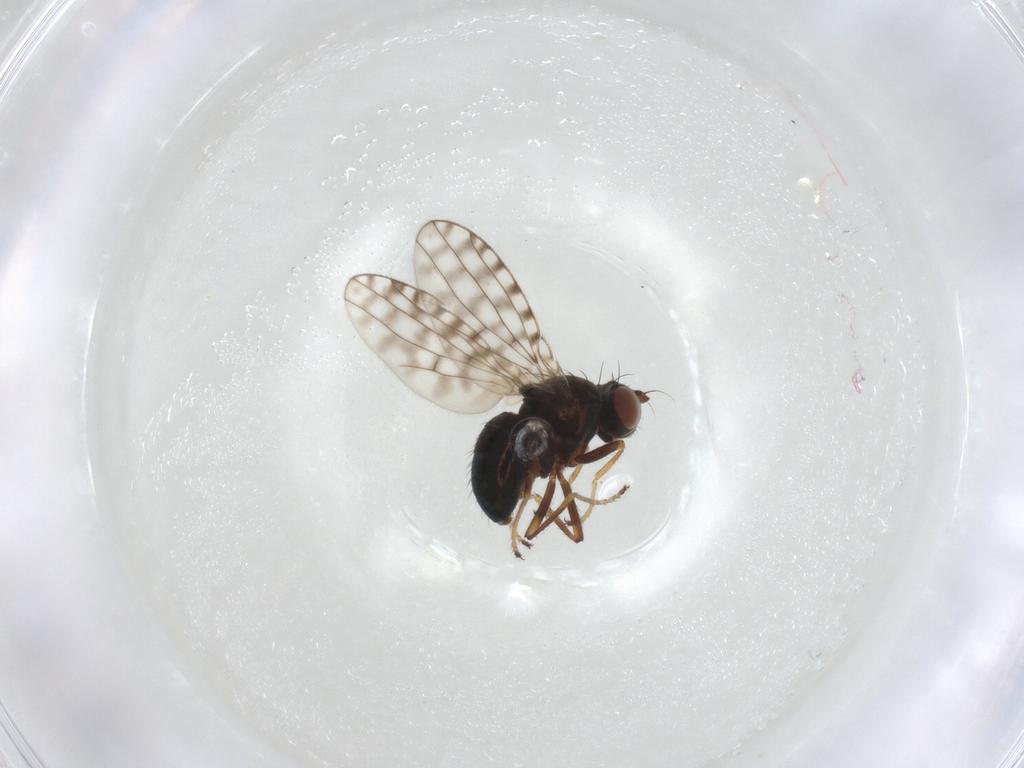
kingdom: Animalia
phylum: Arthropoda
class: Insecta
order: Diptera
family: Ephydridae
